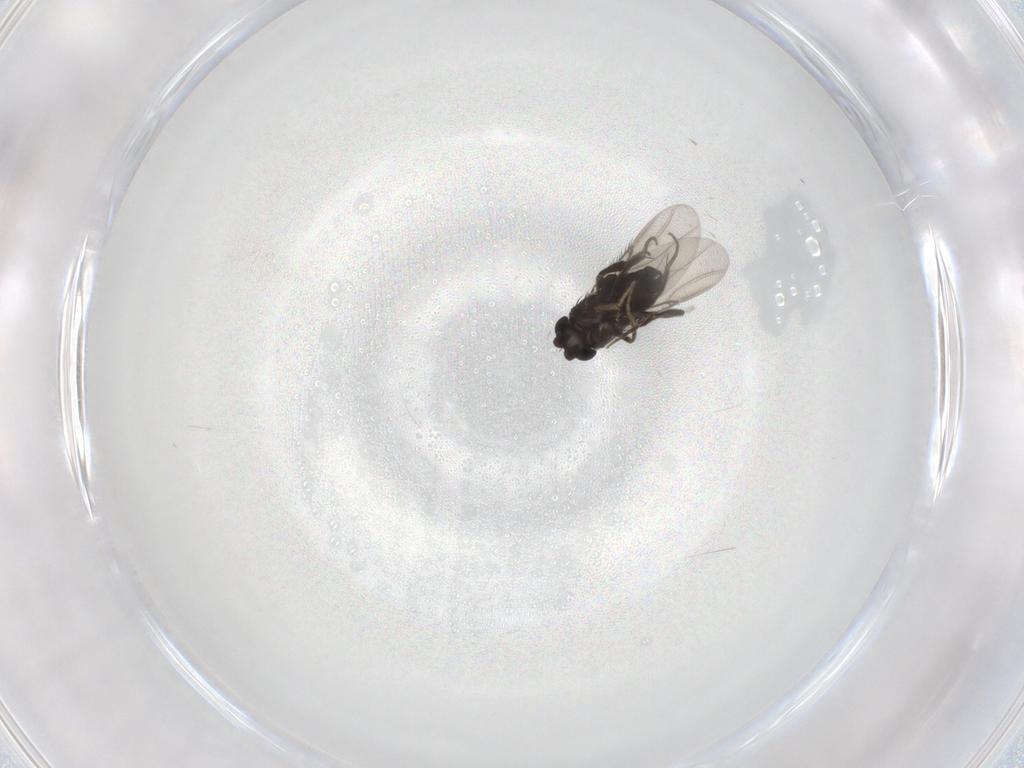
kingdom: Animalia
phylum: Arthropoda
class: Insecta
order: Diptera
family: Phoridae
